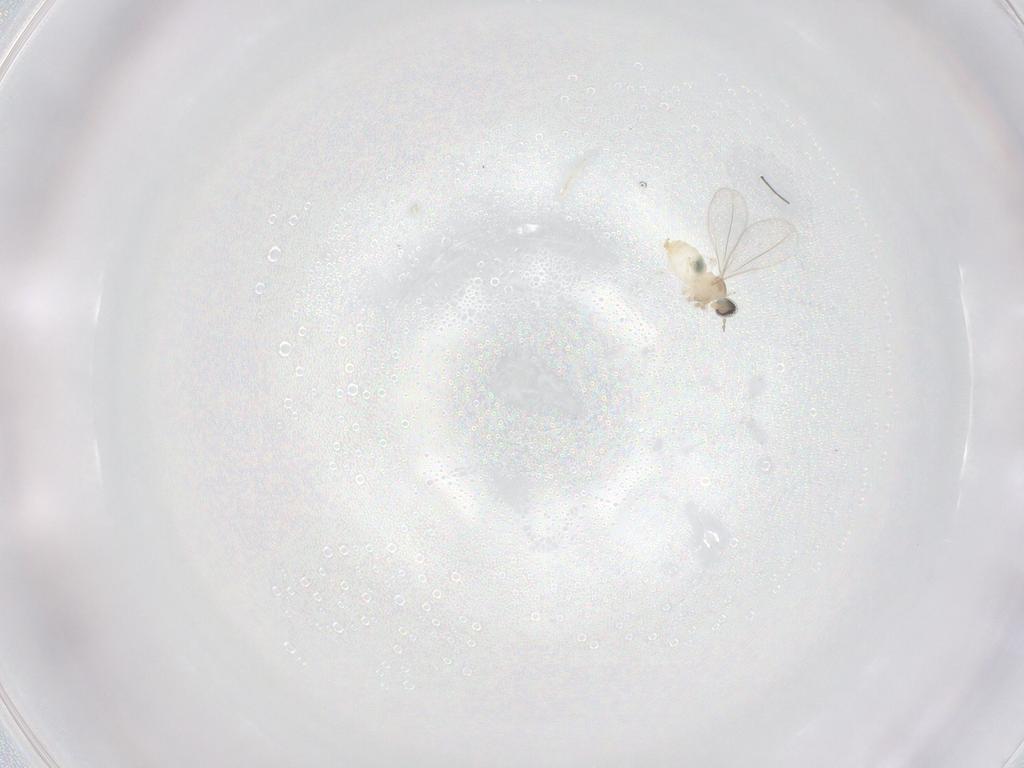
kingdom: Animalia
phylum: Arthropoda
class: Insecta
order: Diptera
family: Cecidomyiidae
